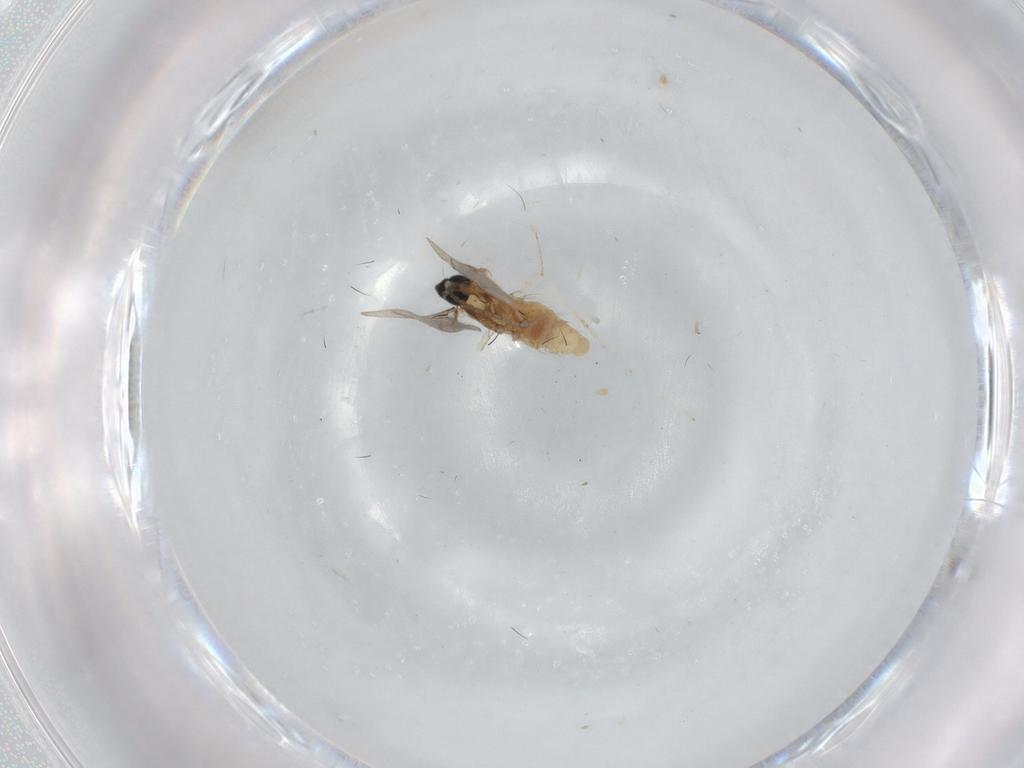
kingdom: Animalia
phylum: Arthropoda
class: Insecta
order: Diptera
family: Cecidomyiidae
